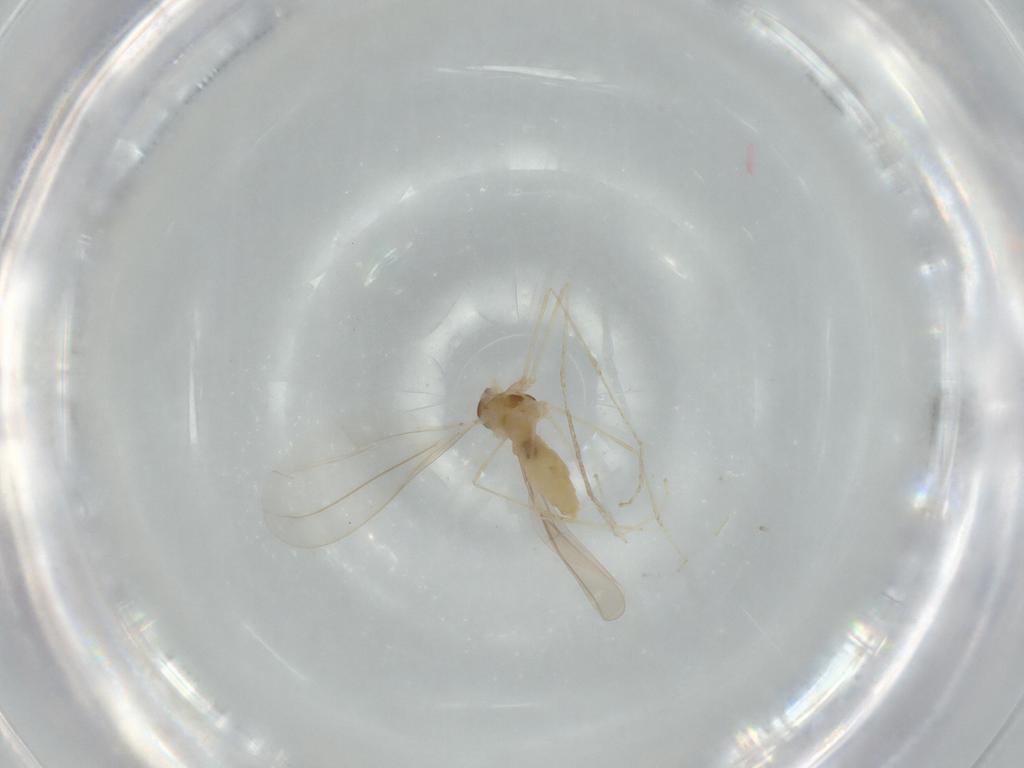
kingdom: Animalia
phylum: Arthropoda
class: Insecta
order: Diptera
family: Cecidomyiidae
